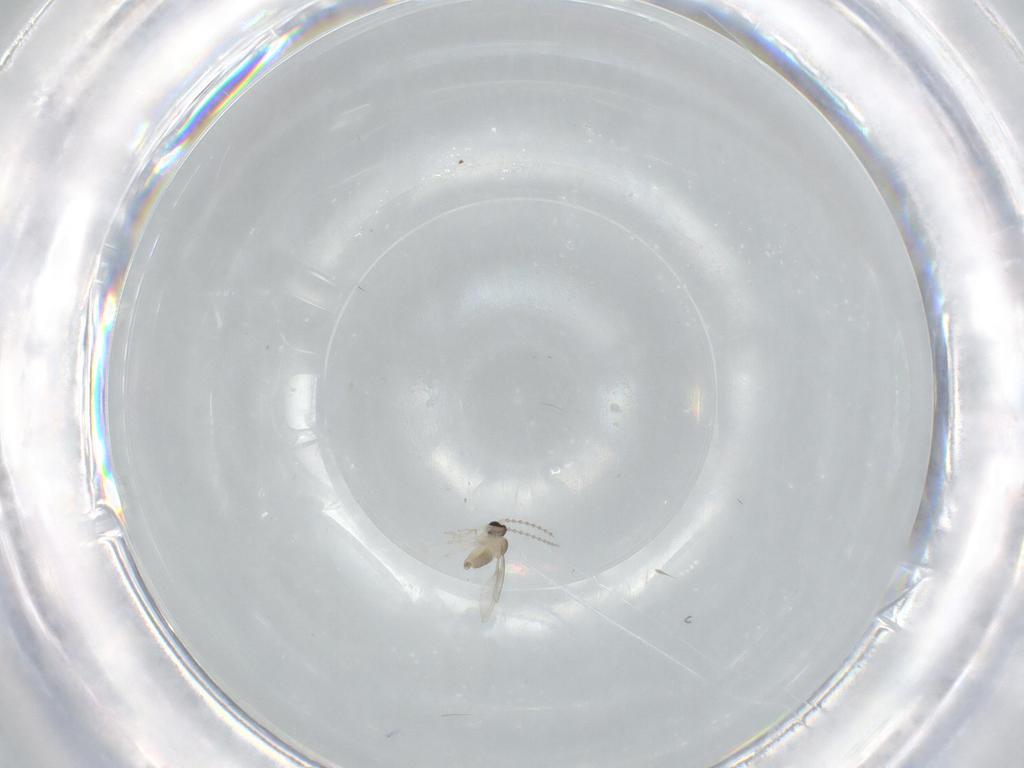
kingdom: Animalia
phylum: Arthropoda
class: Insecta
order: Diptera
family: Cecidomyiidae
